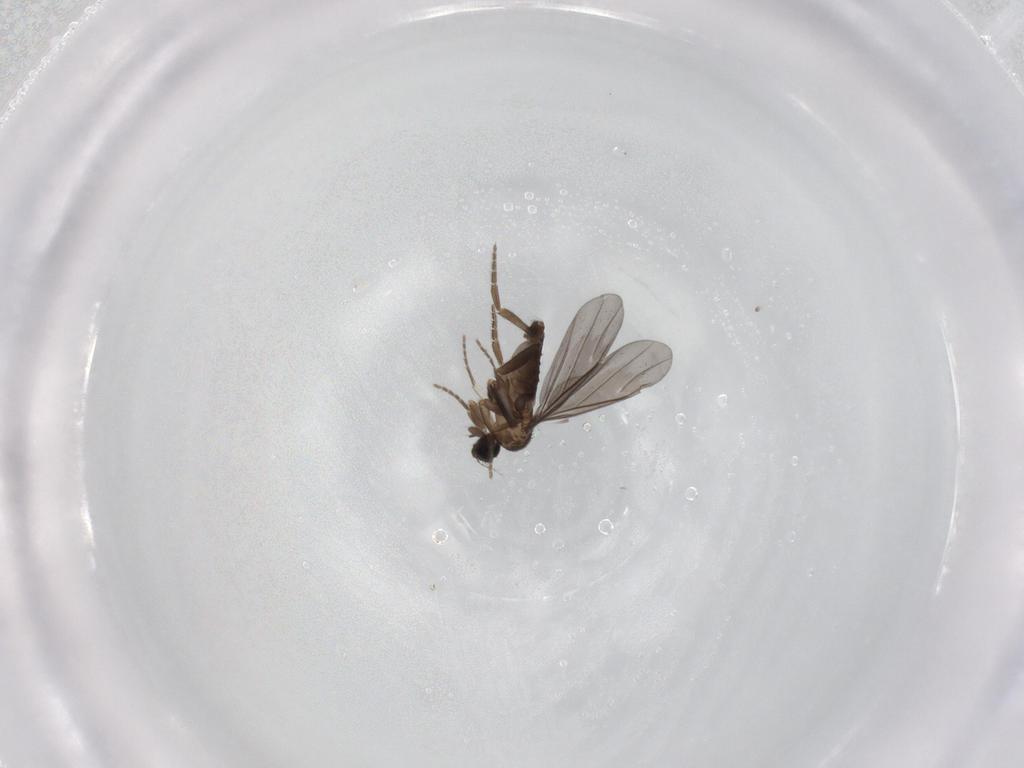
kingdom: Animalia
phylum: Arthropoda
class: Insecta
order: Diptera
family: Phoridae
